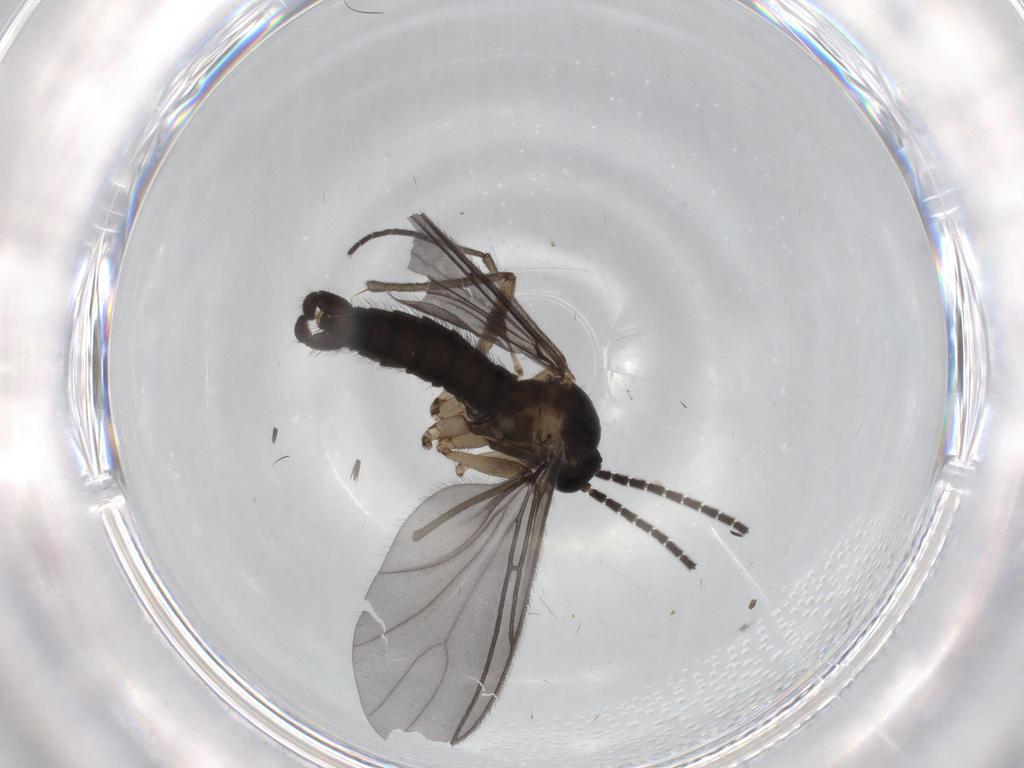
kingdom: Animalia
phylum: Arthropoda
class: Insecta
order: Diptera
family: Sciaridae
